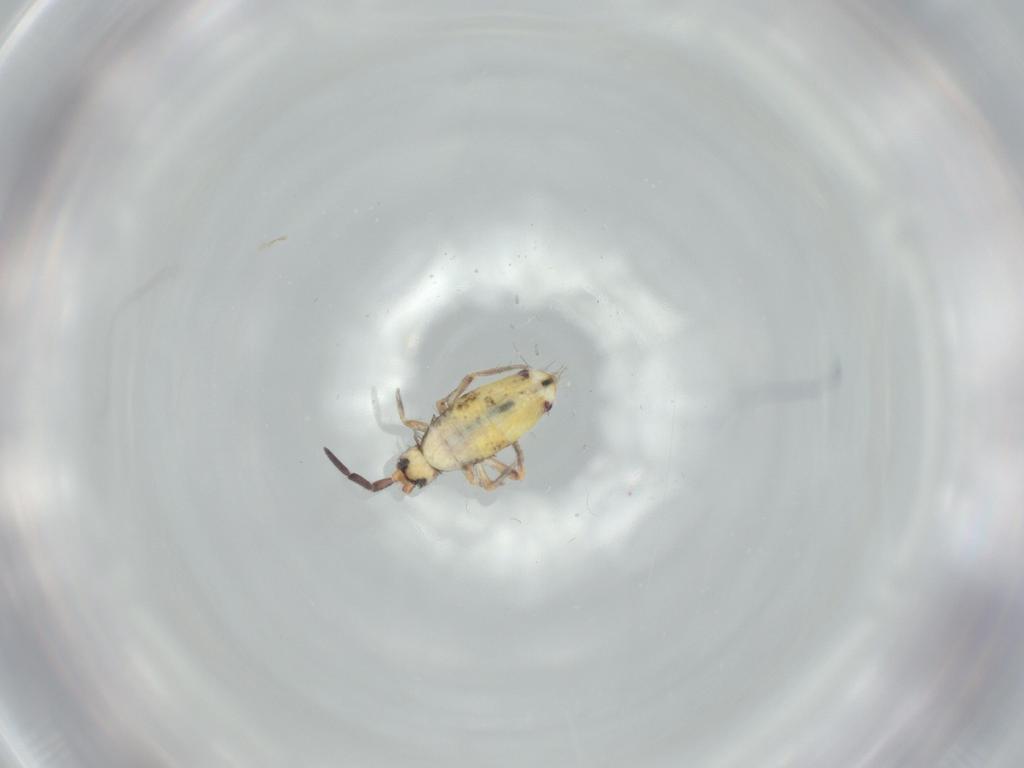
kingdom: Animalia
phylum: Arthropoda
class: Collembola
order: Entomobryomorpha
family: Entomobryidae
